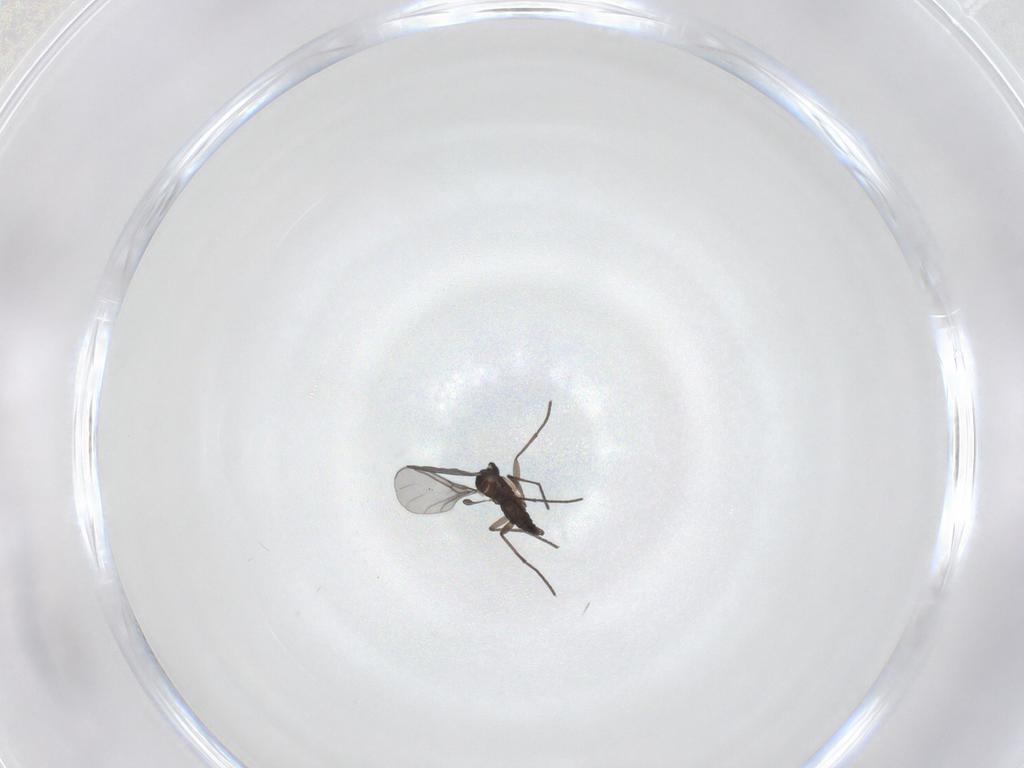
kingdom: Animalia
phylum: Arthropoda
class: Insecta
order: Diptera
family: Sciaridae
